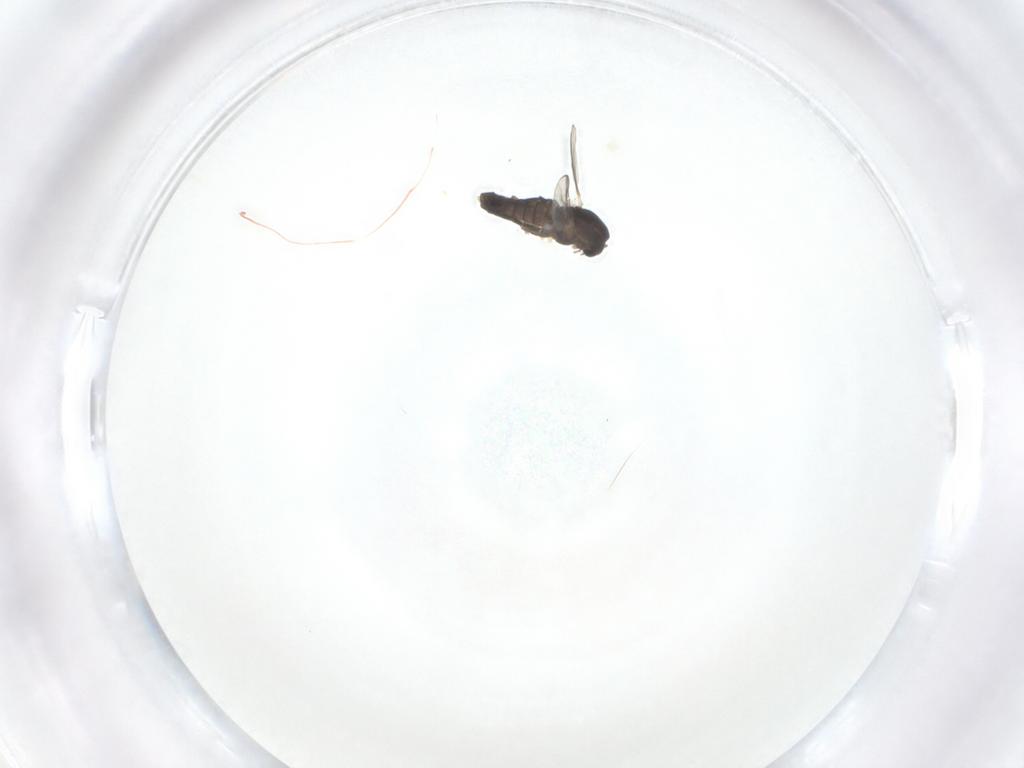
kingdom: Animalia
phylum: Arthropoda
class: Insecta
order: Diptera
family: Chironomidae
